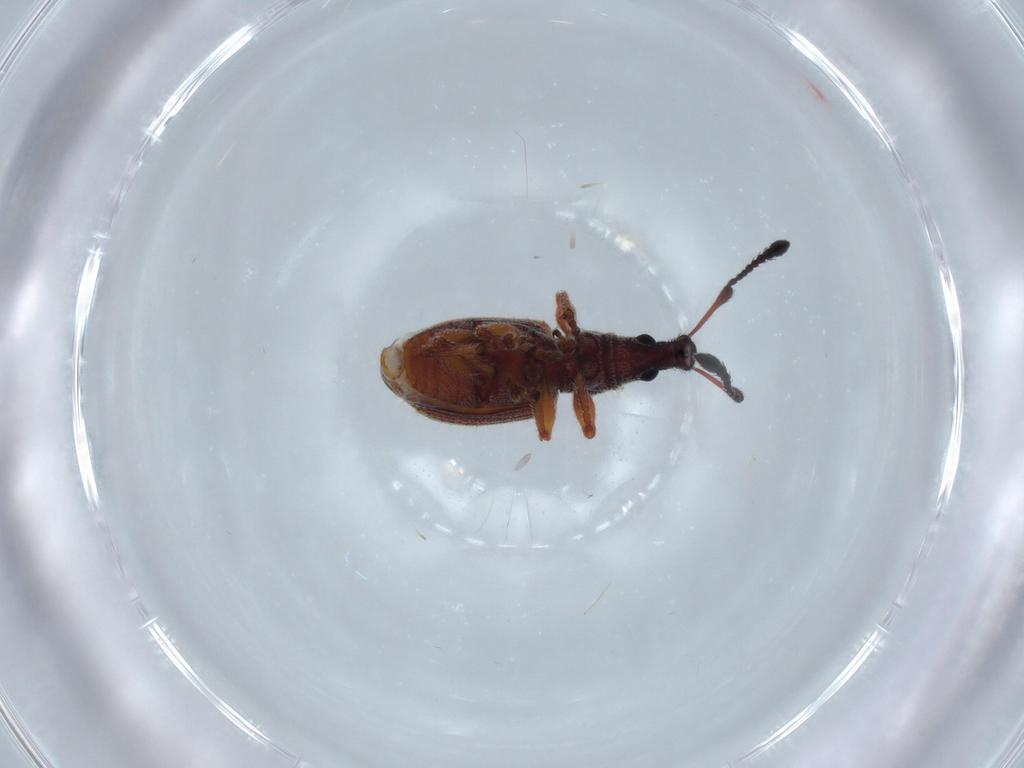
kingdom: Animalia
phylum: Arthropoda
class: Insecta
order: Coleoptera
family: Curculionidae
